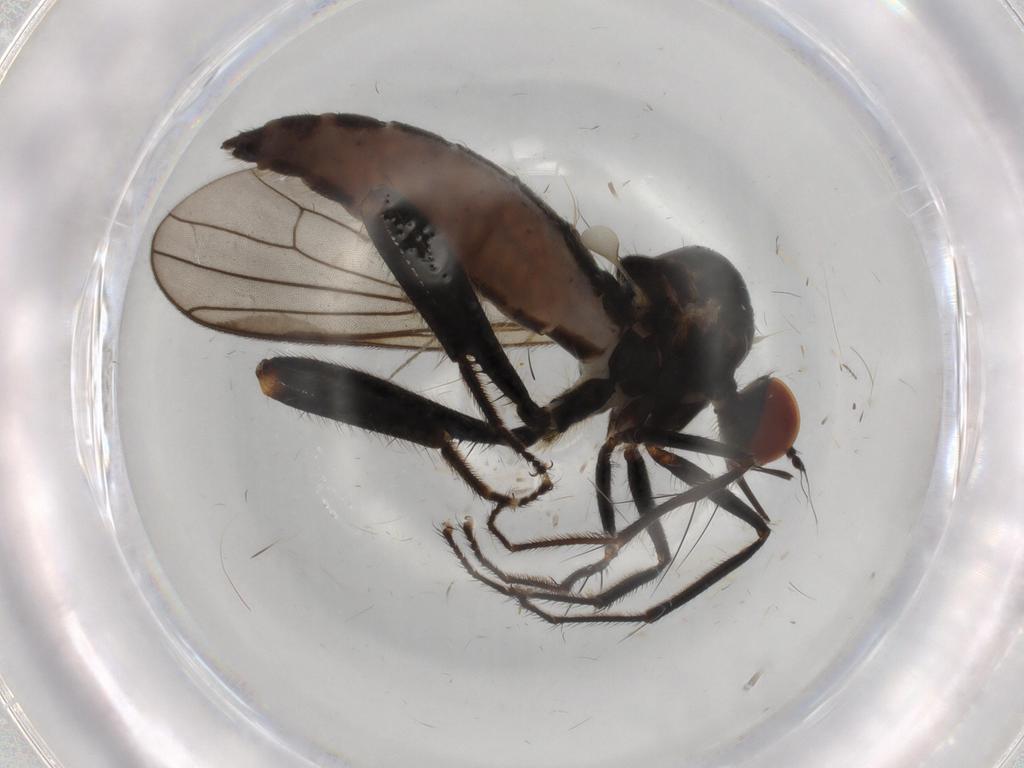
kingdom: Animalia
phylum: Arthropoda
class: Insecta
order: Diptera
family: Hybotidae
